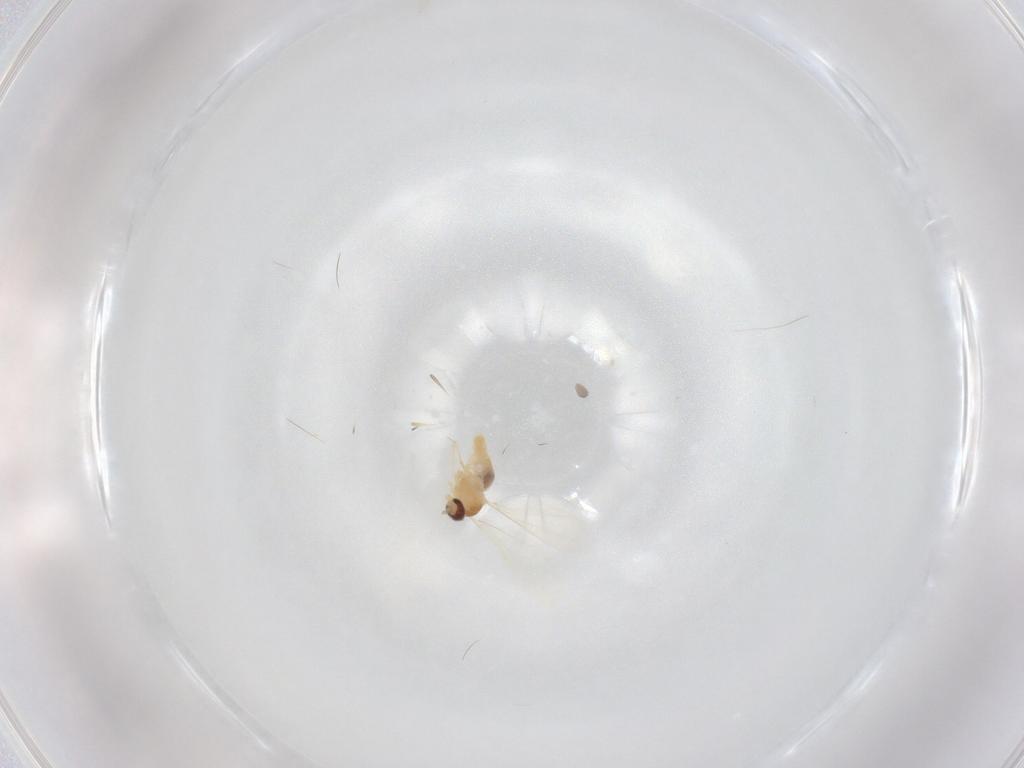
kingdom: Animalia
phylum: Arthropoda
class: Insecta
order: Diptera
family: Cecidomyiidae
